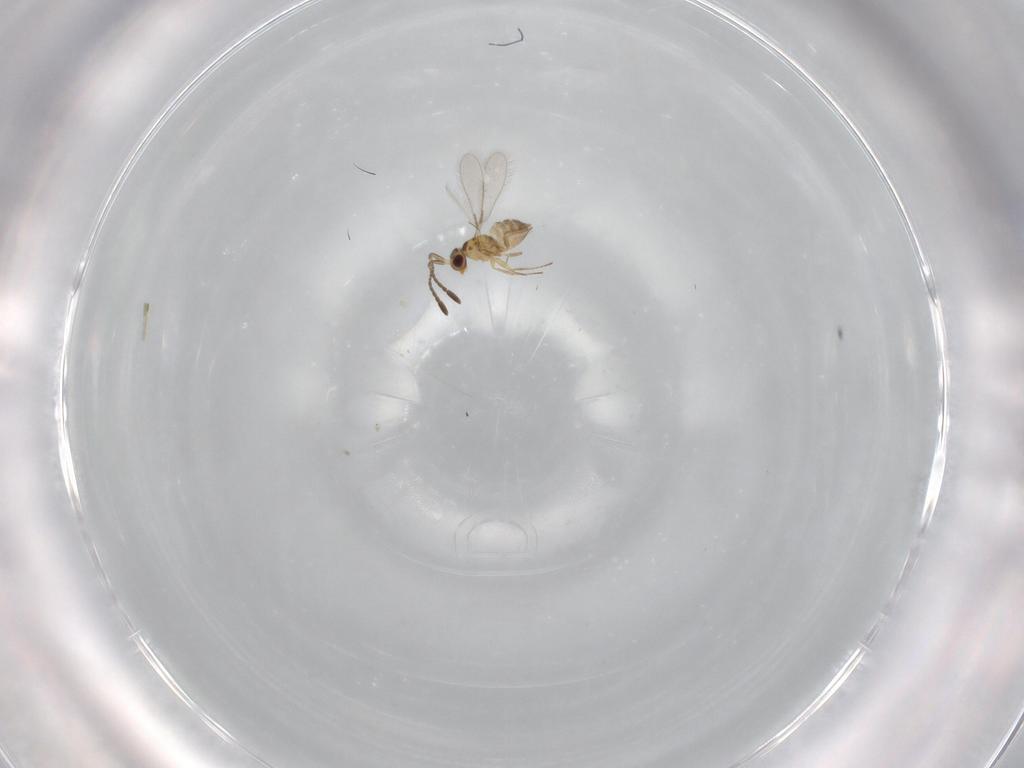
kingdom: Animalia
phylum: Arthropoda
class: Insecta
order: Hymenoptera
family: Mymaridae
